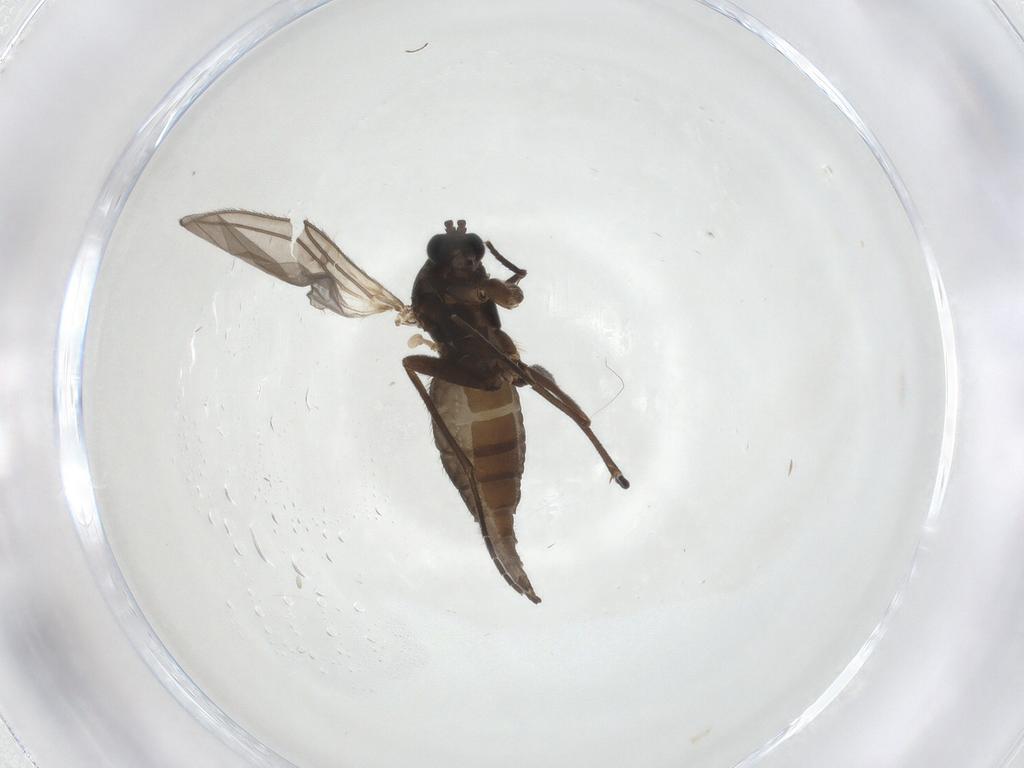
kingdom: Animalia
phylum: Arthropoda
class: Insecta
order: Diptera
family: Sciaridae
